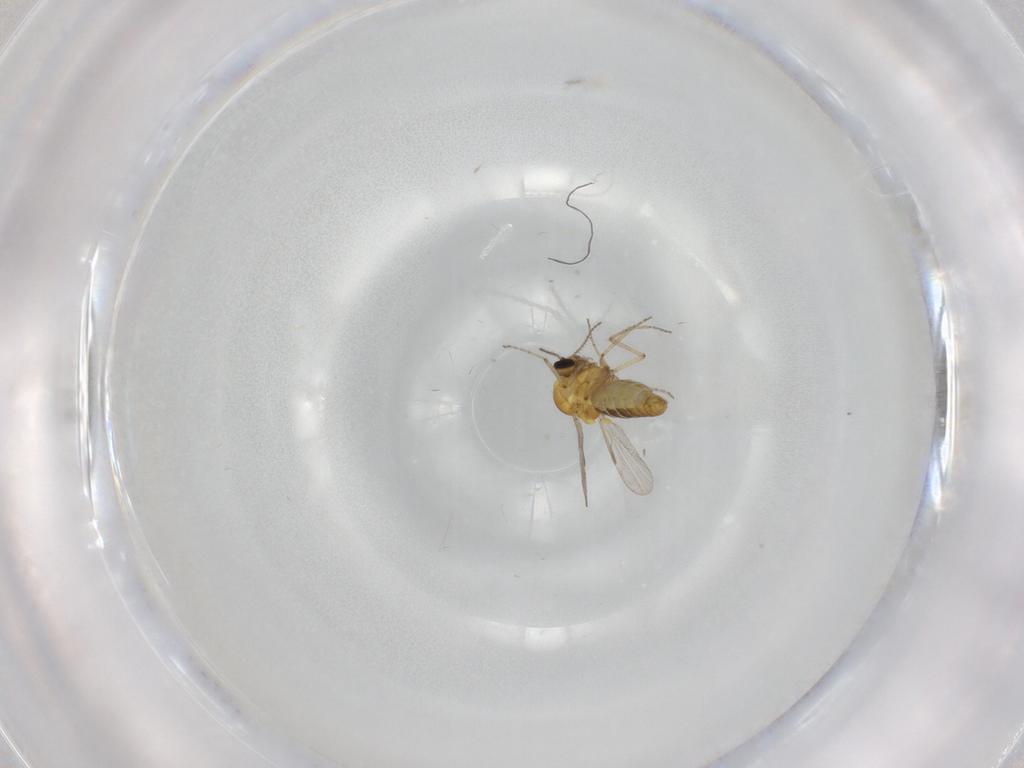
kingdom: Animalia
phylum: Arthropoda
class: Insecta
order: Diptera
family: Ceratopogonidae
